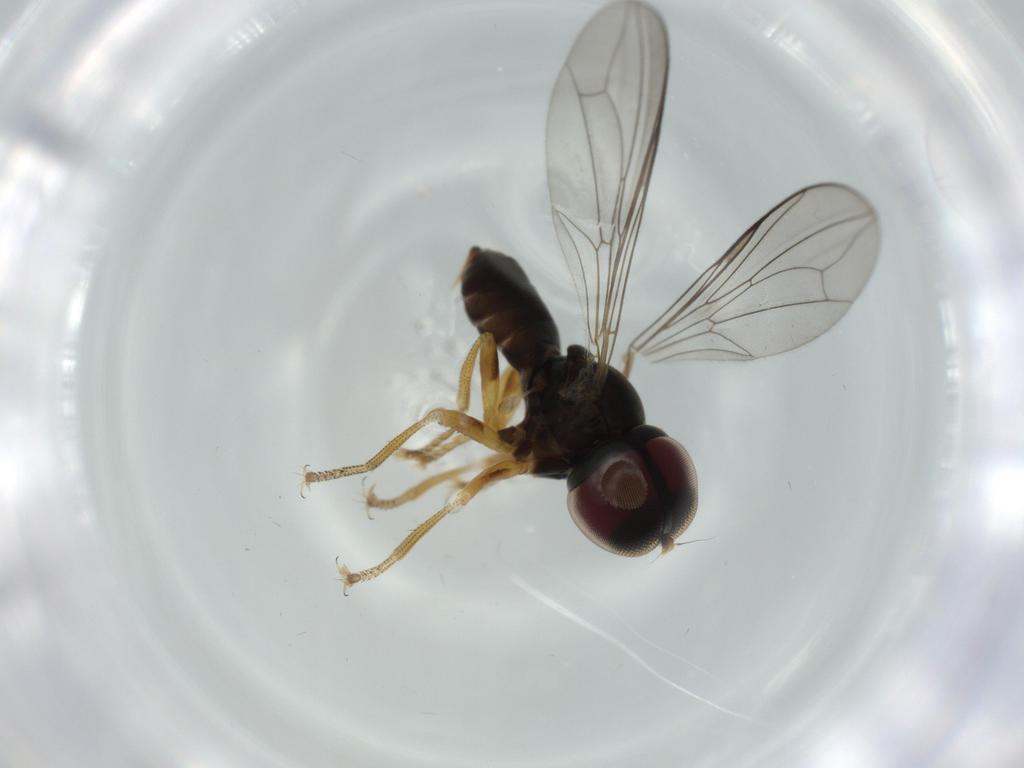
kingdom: Animalia
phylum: Arthropoda
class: Insecta
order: Diptera
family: Pipunculidae
